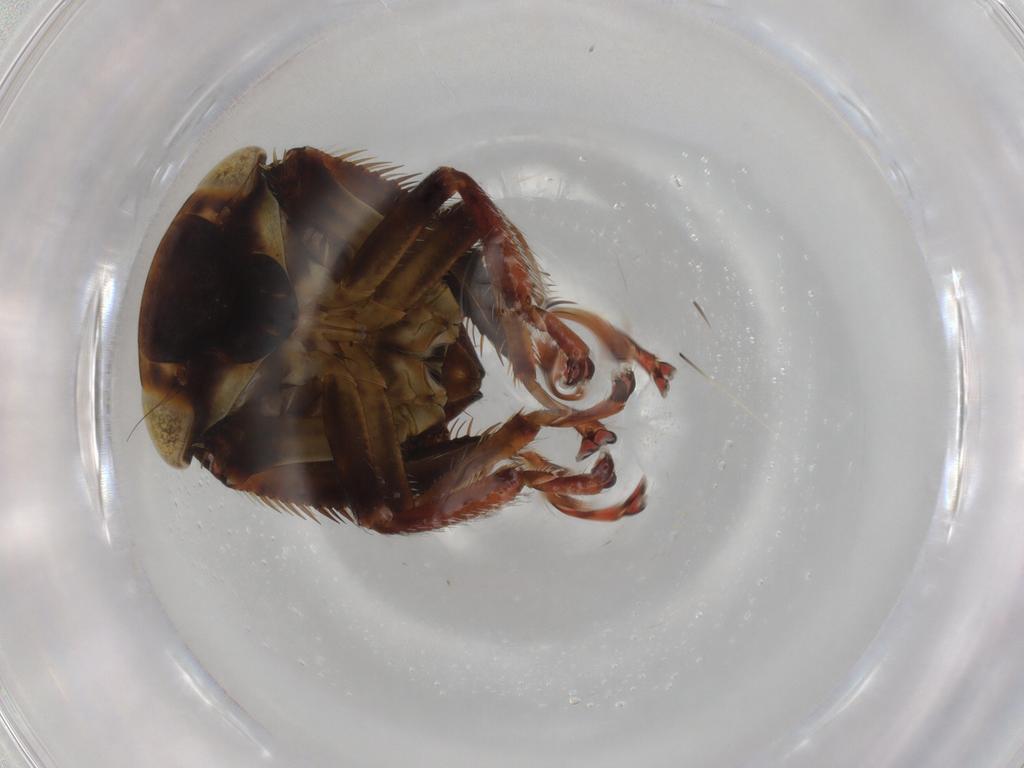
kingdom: Animalia
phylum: Arthropoda
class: Insecta
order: Hemiptera
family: Cicadellidae
